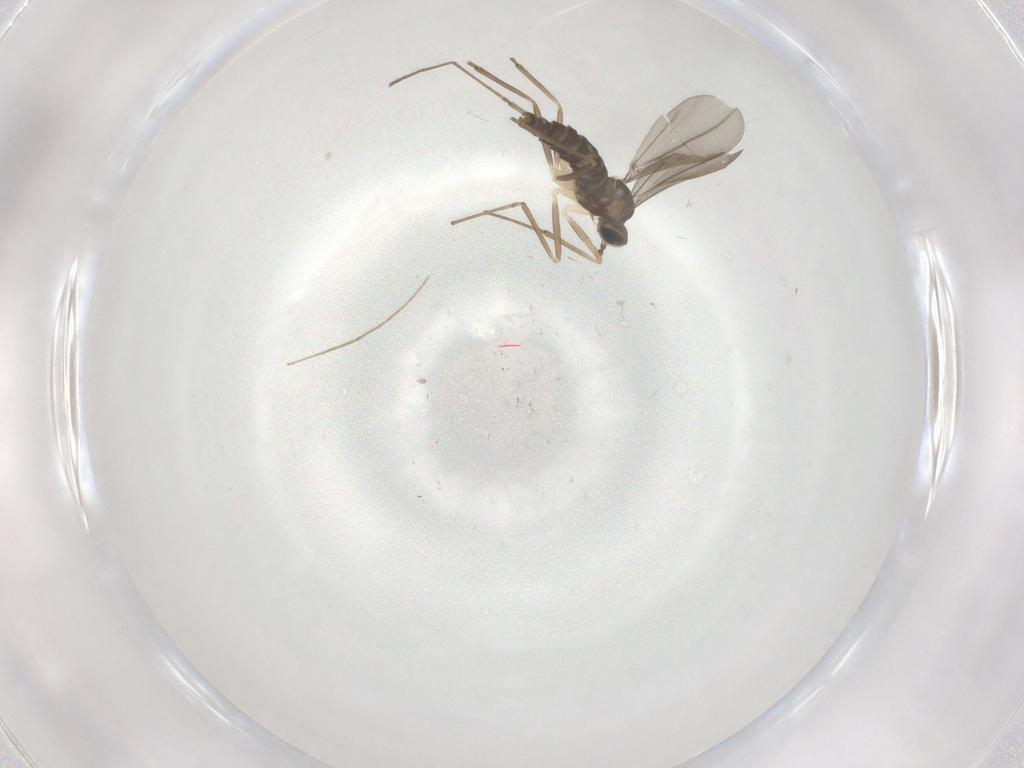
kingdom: Animalia
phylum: Arthropoda
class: Insecta
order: Diptera
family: Cecidomyiidae
